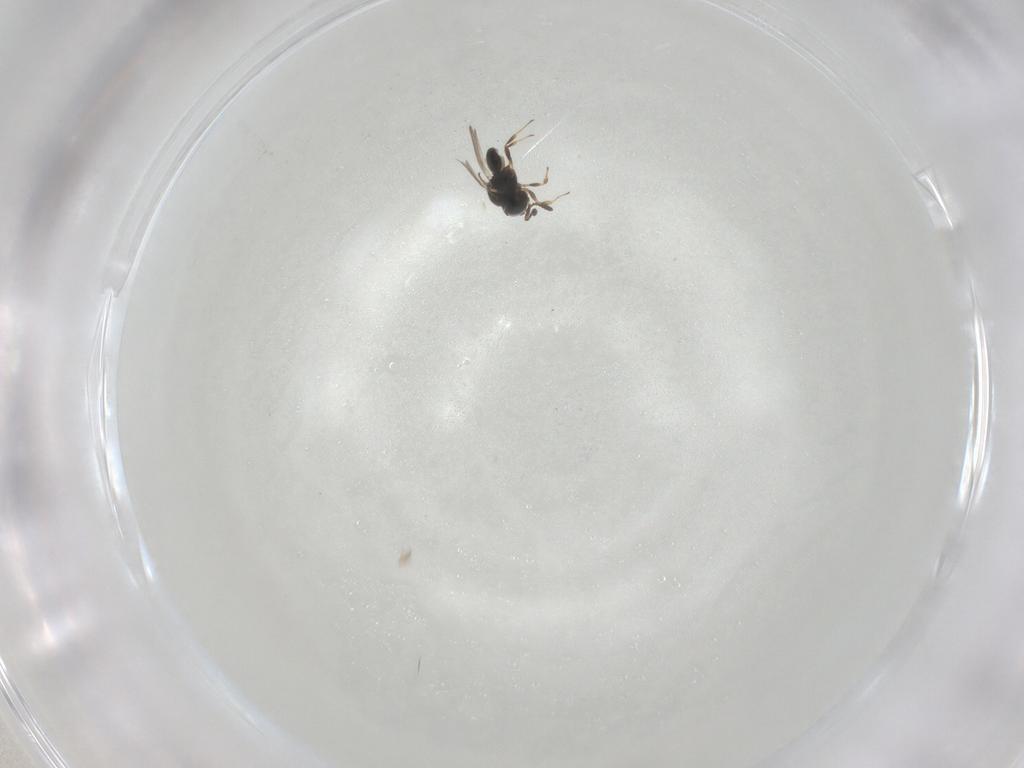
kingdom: Animalia
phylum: Arthropoda
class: Insecta
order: Hymenoptera
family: Scelionidae
